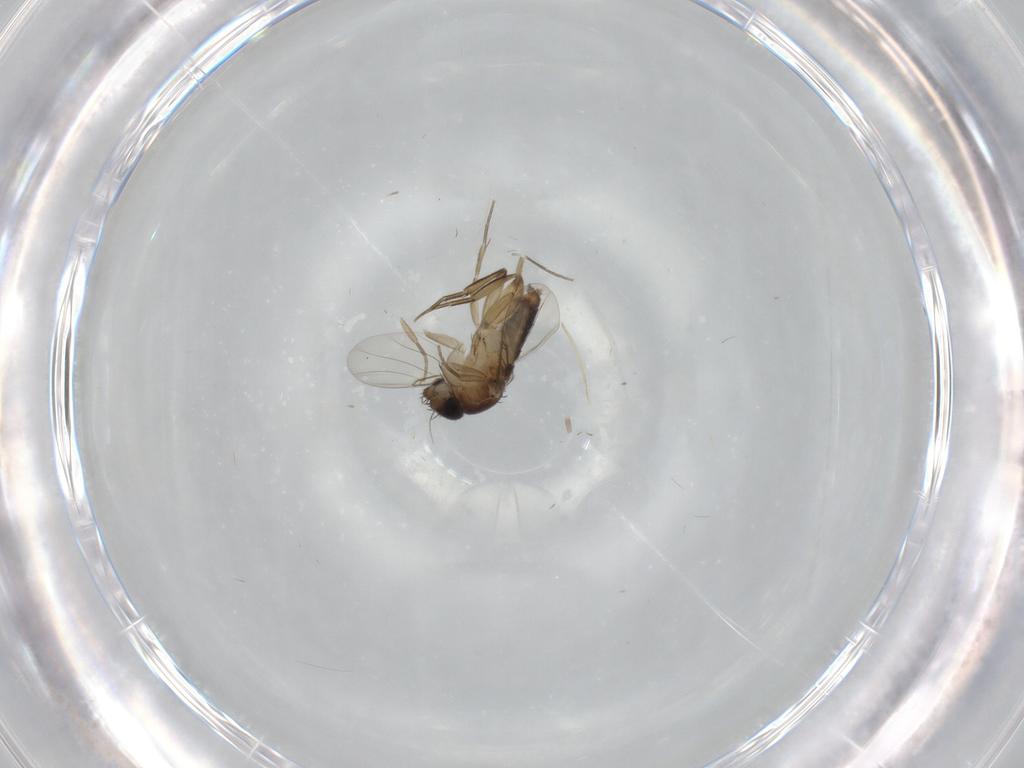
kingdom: Animalia
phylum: Arthropoda
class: Insecta
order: Diptera
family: Phoridae
